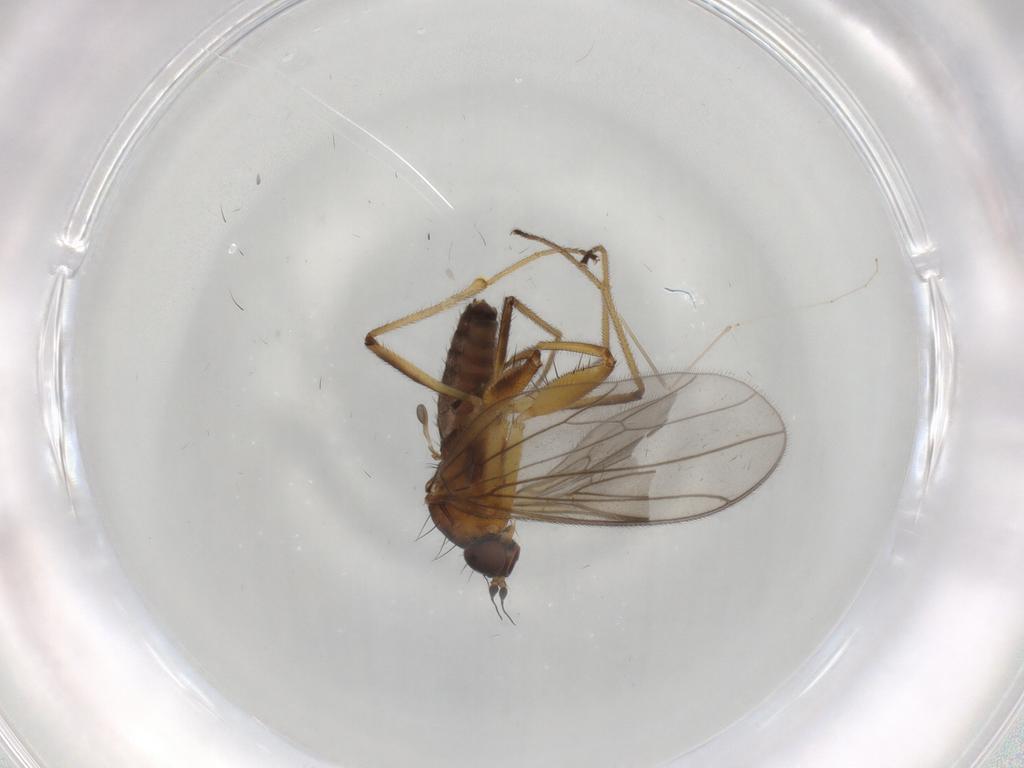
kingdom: Animalia
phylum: Arthropoda
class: Insecta
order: Diptera
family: Empididae
